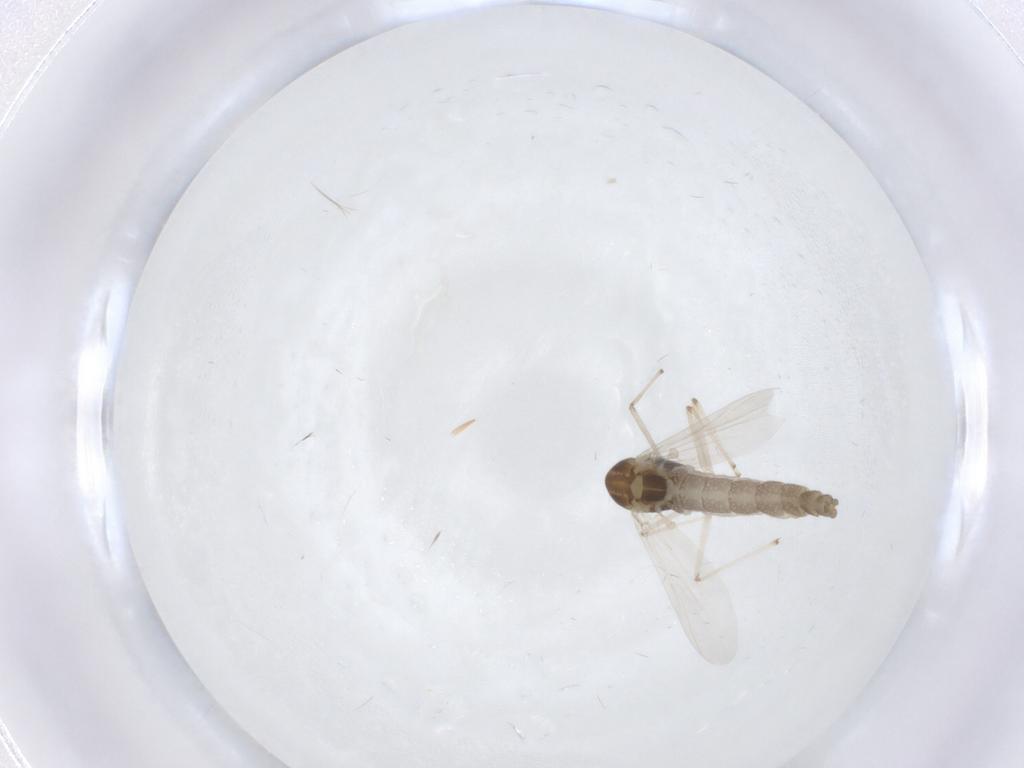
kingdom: Animalia
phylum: Arthropoda
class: Insecta
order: Diptera
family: Chironomidae
